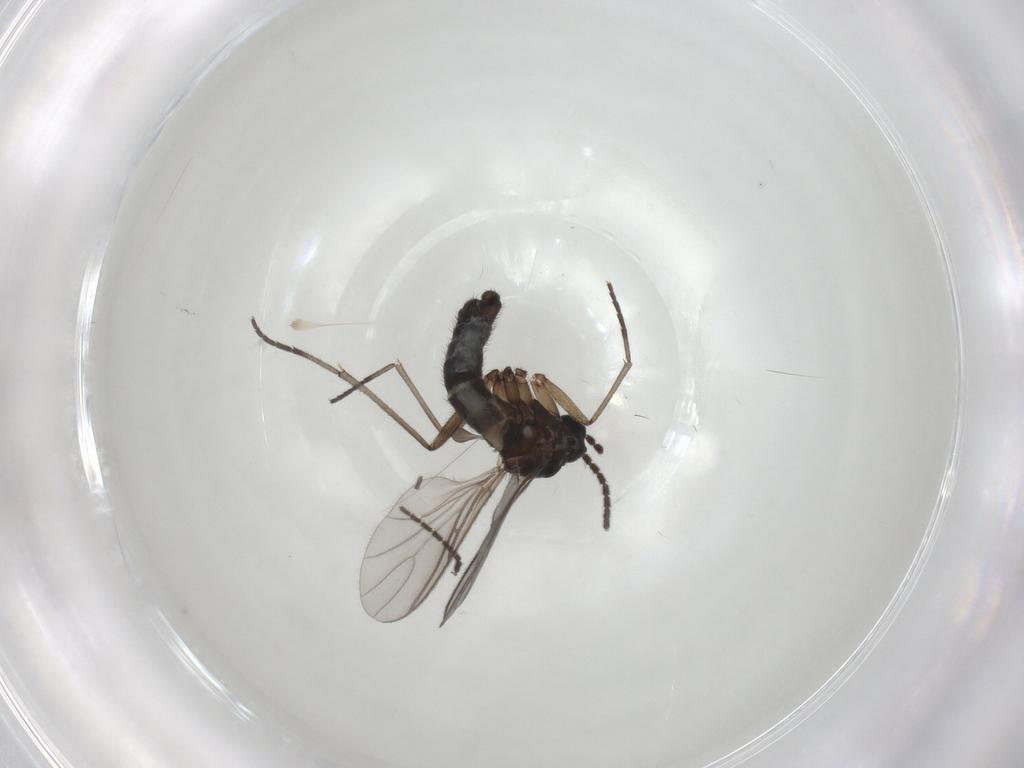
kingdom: Animalia
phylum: Arthropoda
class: Insecta
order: Diptera
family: Sciaridae
